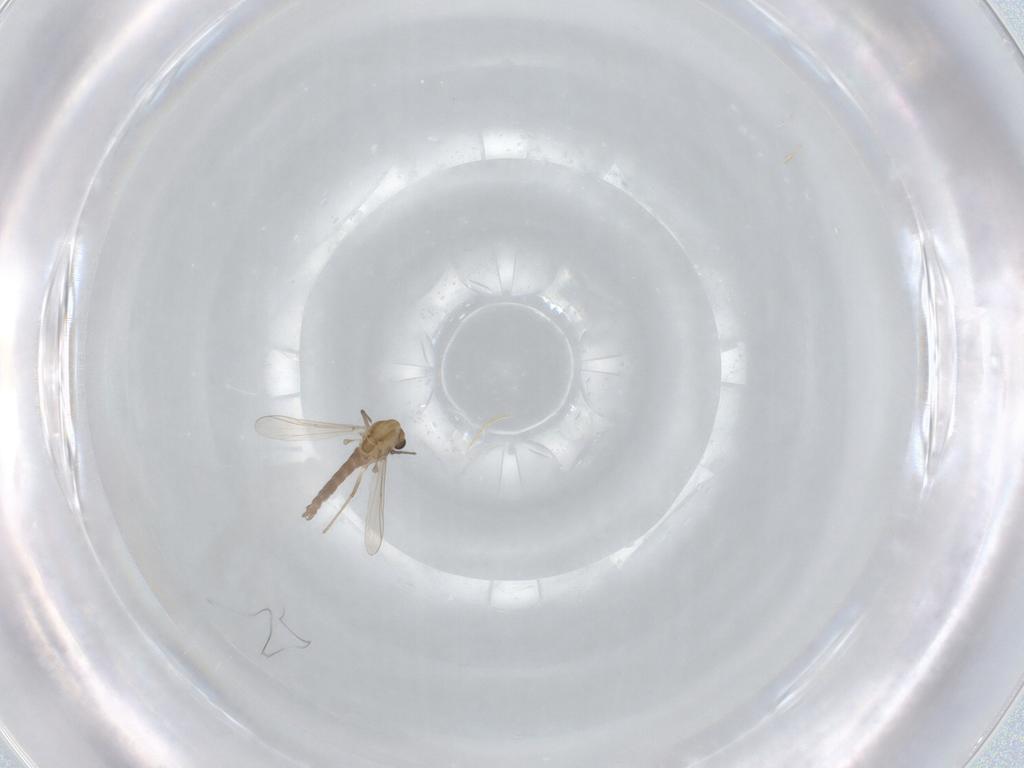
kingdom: Animalia
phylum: Arthropoda
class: Insecta
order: Diptera
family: Chironomidae
